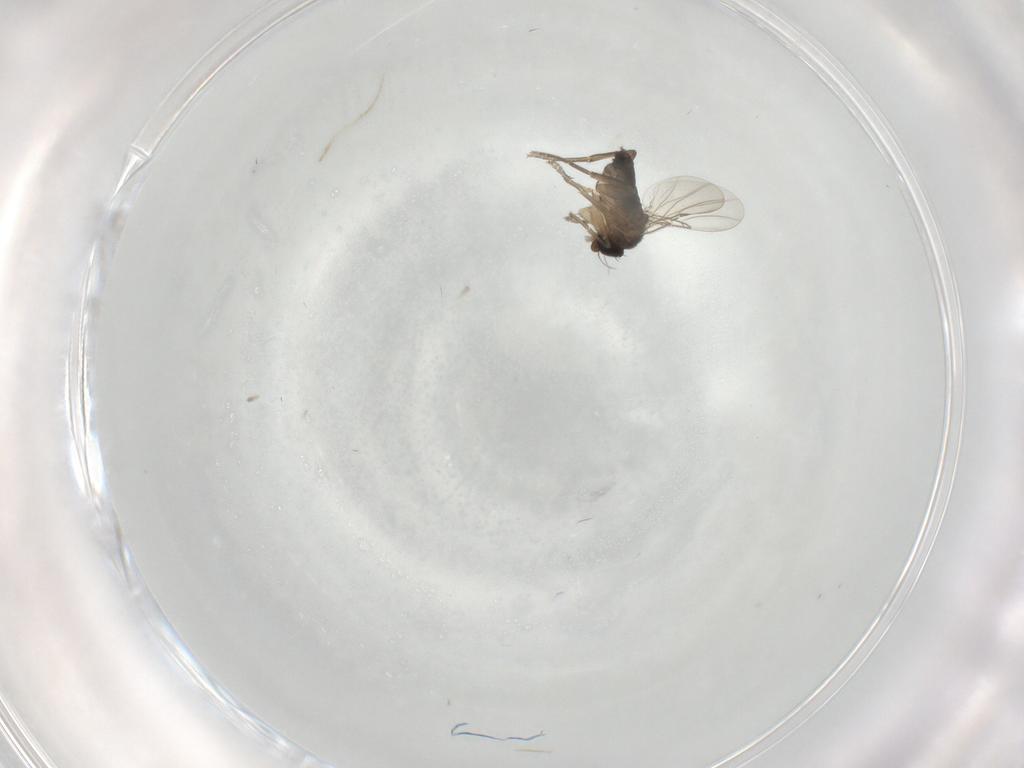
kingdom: Animalia
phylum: Arthropoda
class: Insecta
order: Diptera
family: Phoridae
